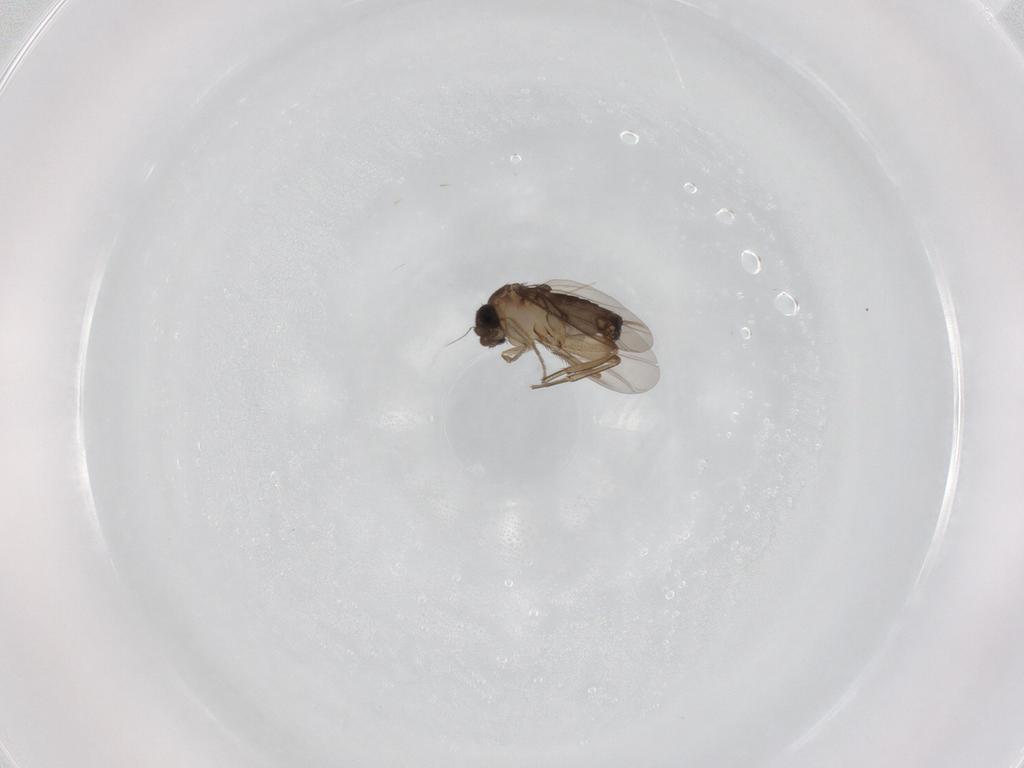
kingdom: Animalia
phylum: Arthropoda
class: Insecta
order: Diptera
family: Phoridae
